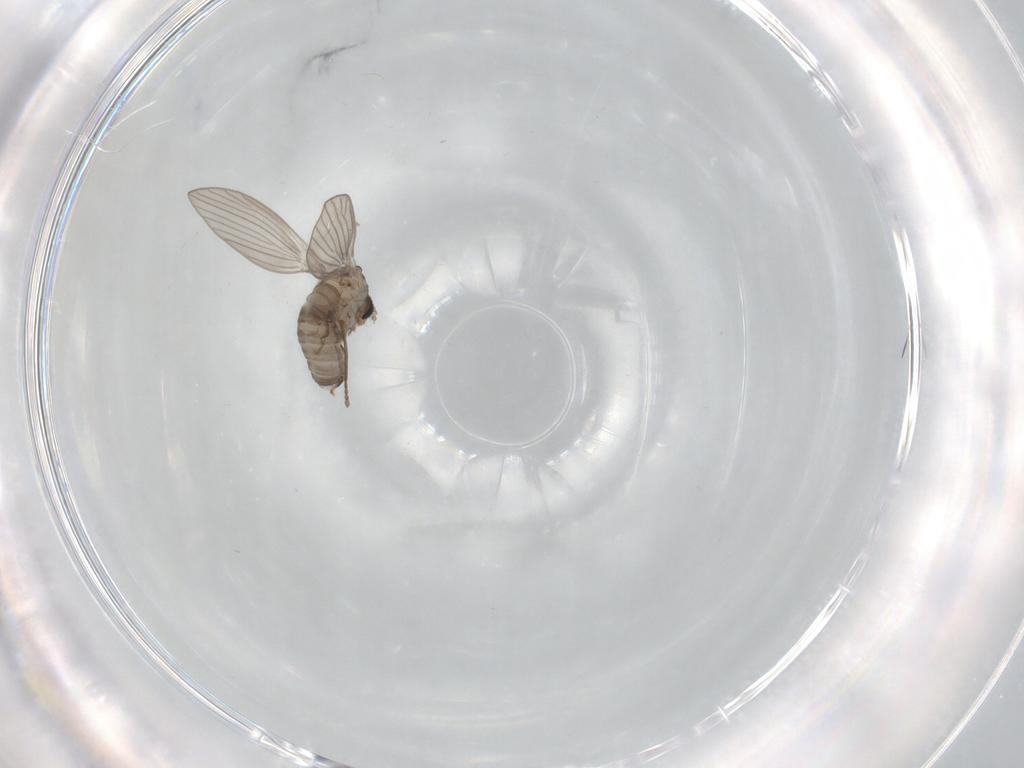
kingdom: Animalia
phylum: Arthropoda
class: Insecta
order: Diptera
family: Psychodidae
